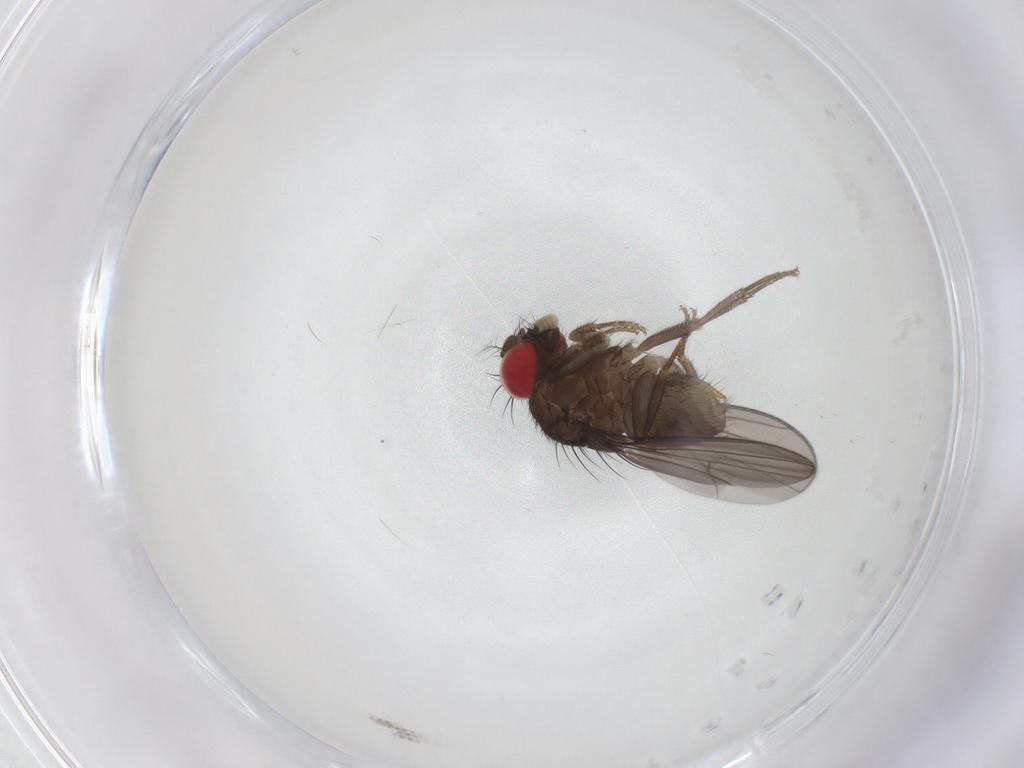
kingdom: Animalia
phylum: Arthropoda
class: Insecta
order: Diptera
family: Drosophilidae
